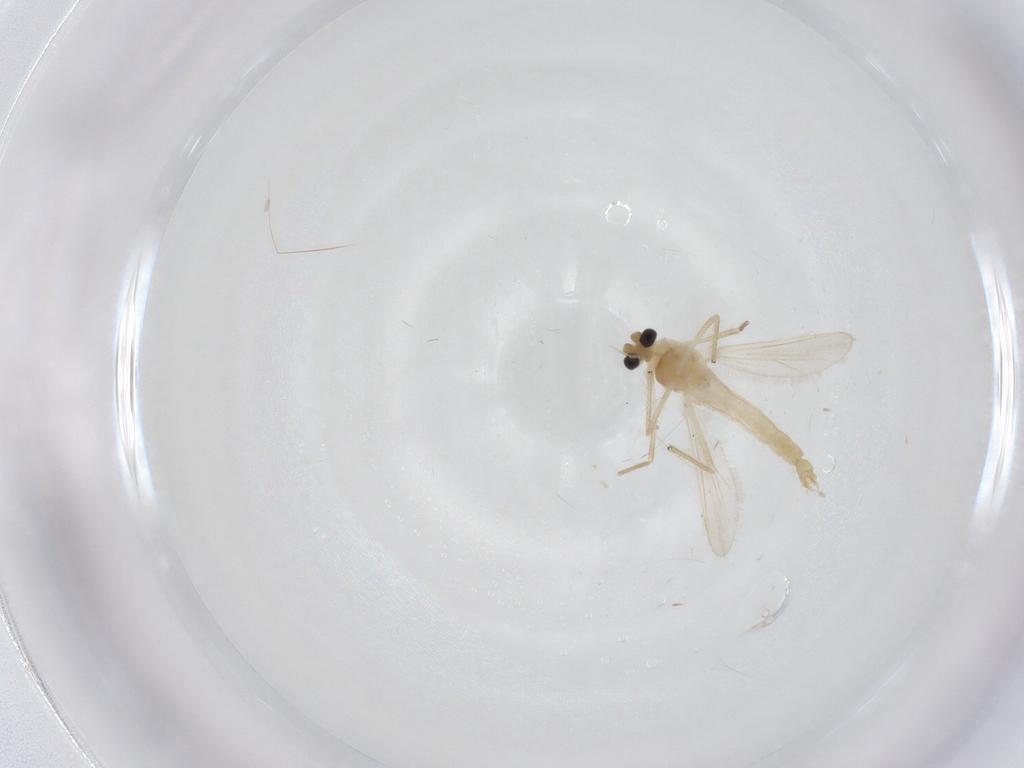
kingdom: Animalia
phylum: Arthropoda
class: Insecta
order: Diptera
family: Chironomidae
